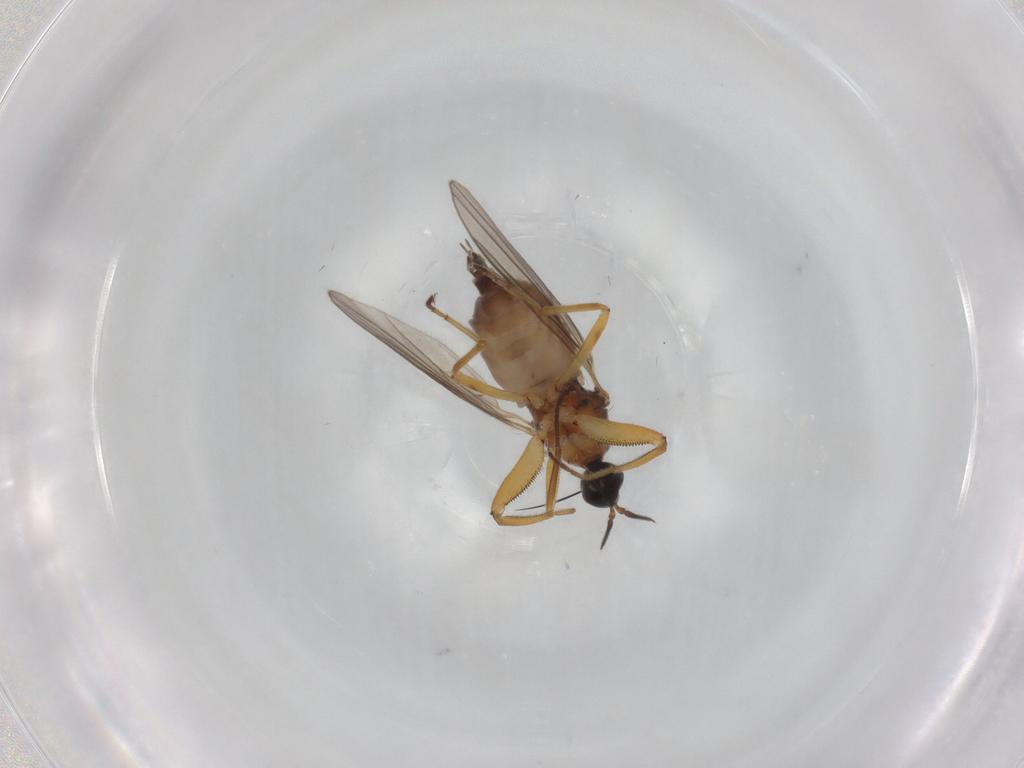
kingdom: Animalia
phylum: Arthropoda
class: Insecta
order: Diptera
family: Hybotidae
